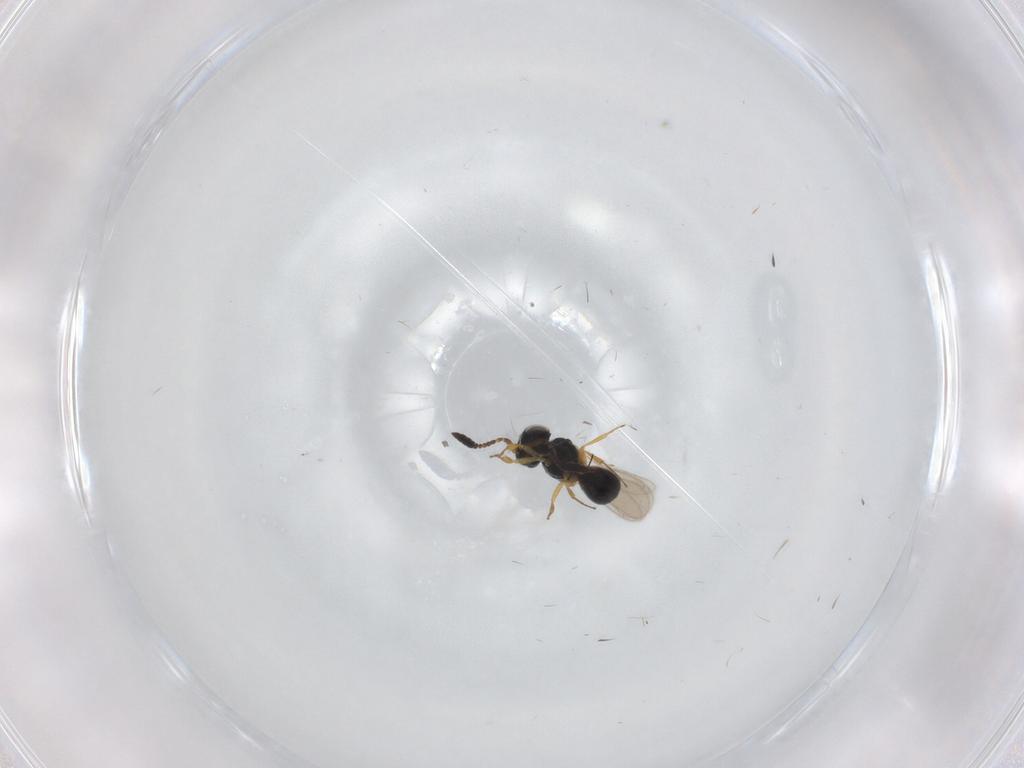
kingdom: Animalia
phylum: Arthropoda
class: Insecta
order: Hymenoptera
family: Scelionidae
